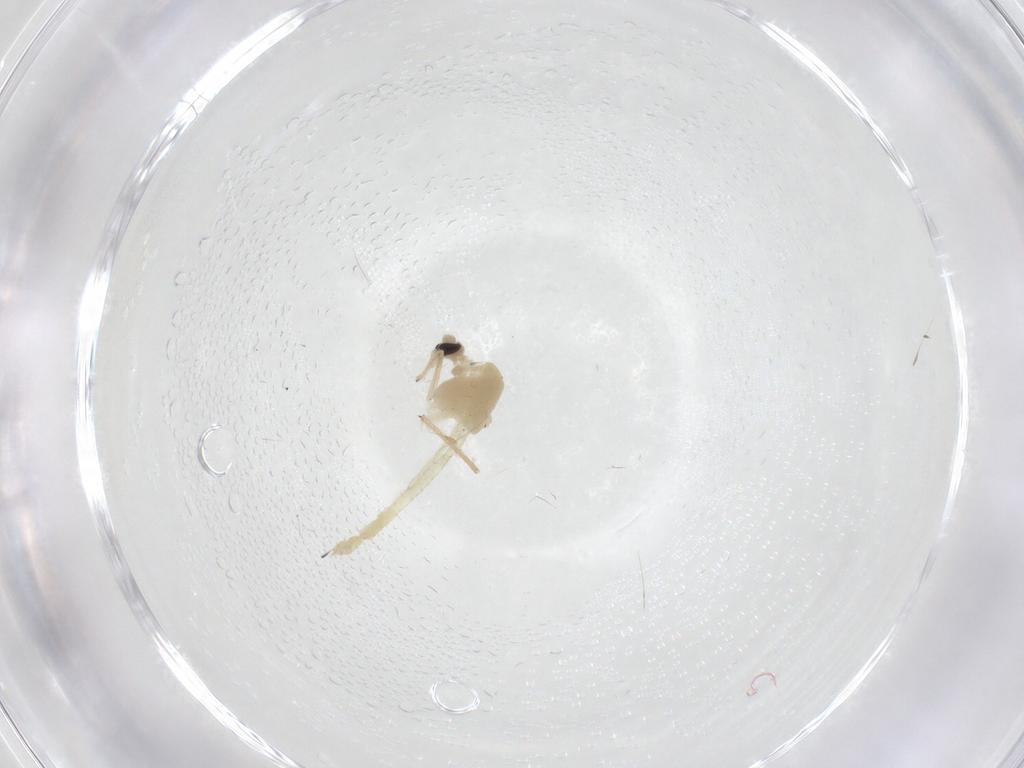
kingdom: Animalia
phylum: Arthropoda
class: Insecta
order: Diptera
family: Chironomidae
